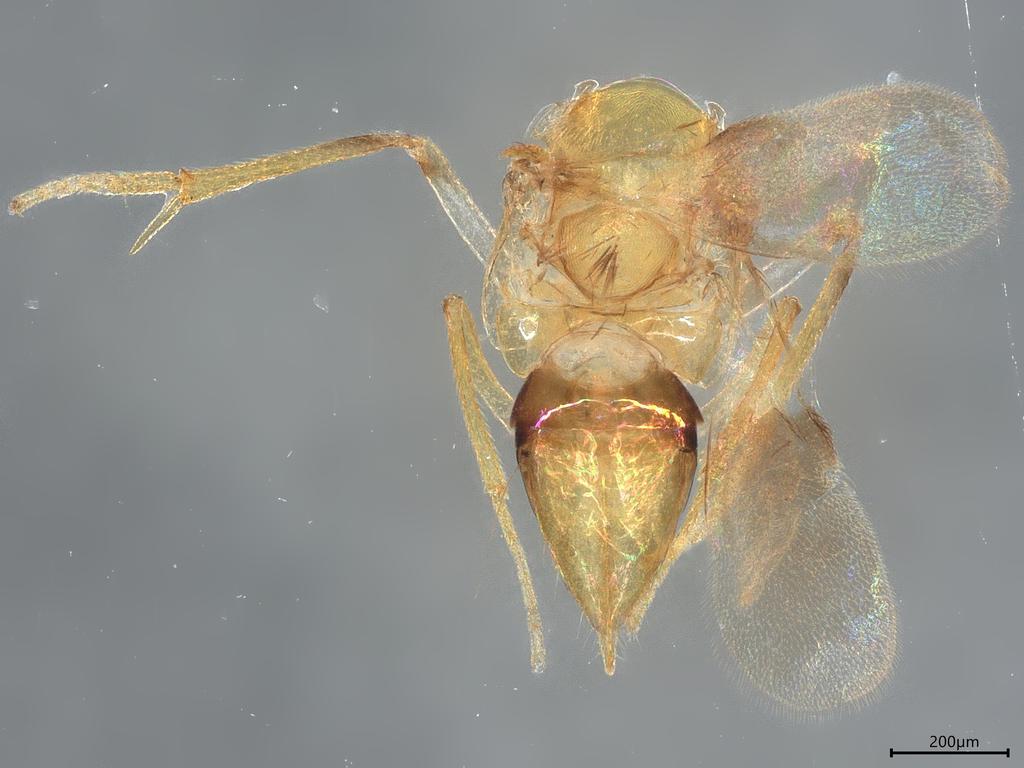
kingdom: Animalia
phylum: Arthropoda
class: Insecta
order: Hymenoptera
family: Encyrtidae
